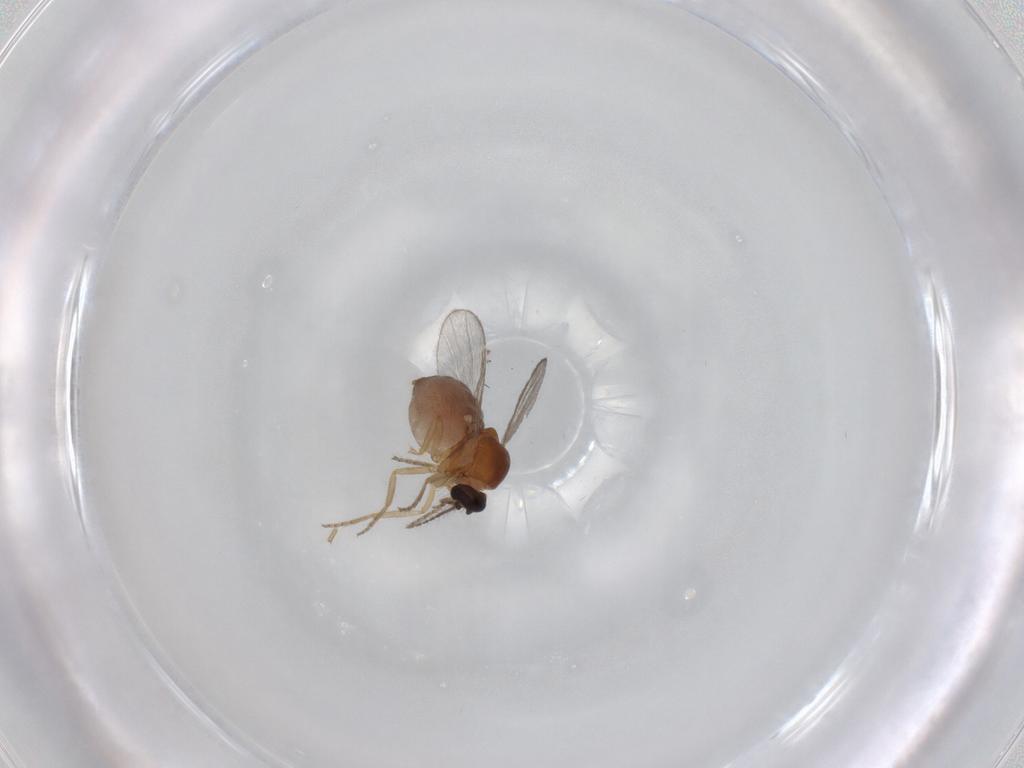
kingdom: Animalia
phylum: Arthropoda
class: Insecta
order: Diptera
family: Ceratopogonidae
